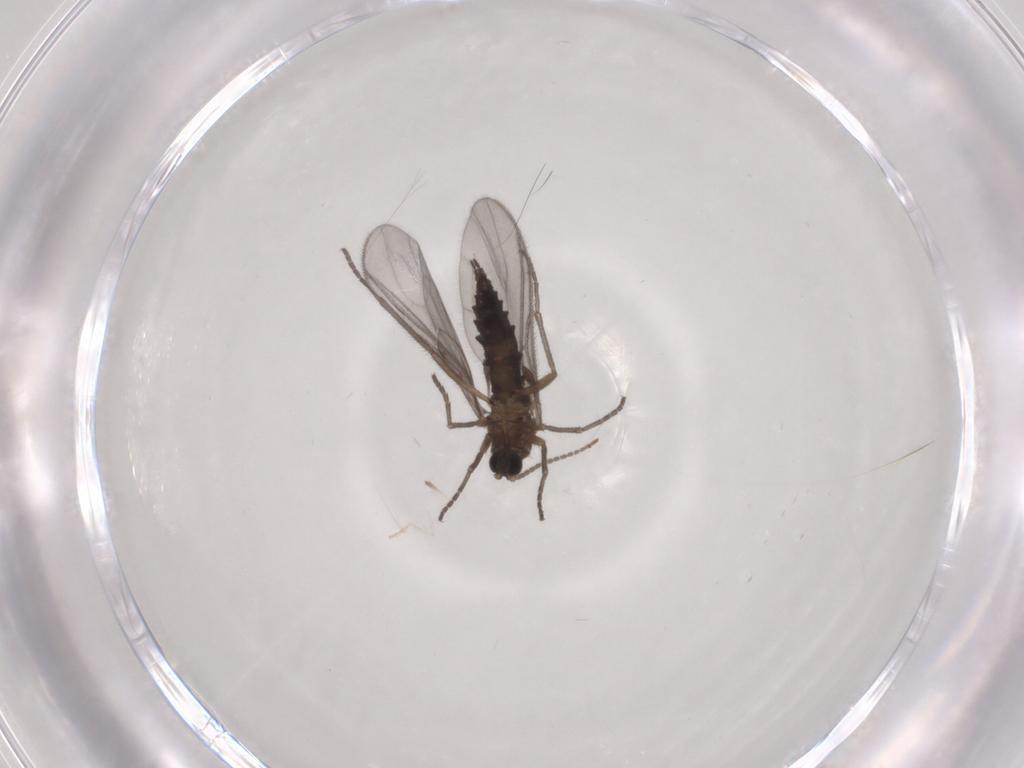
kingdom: Animalia
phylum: Arthropoda
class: Insecta
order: Diptera
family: Sciaridae
